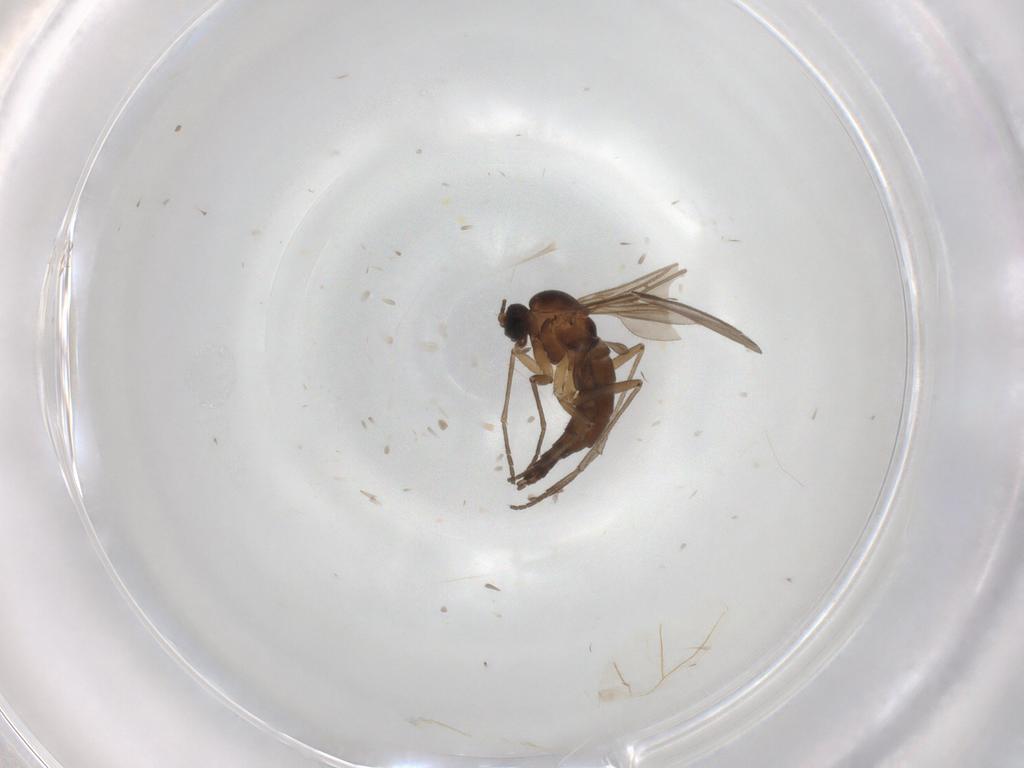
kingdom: Animalia
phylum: Arthropoda
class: Insecta
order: Diptera
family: Sciaridae
